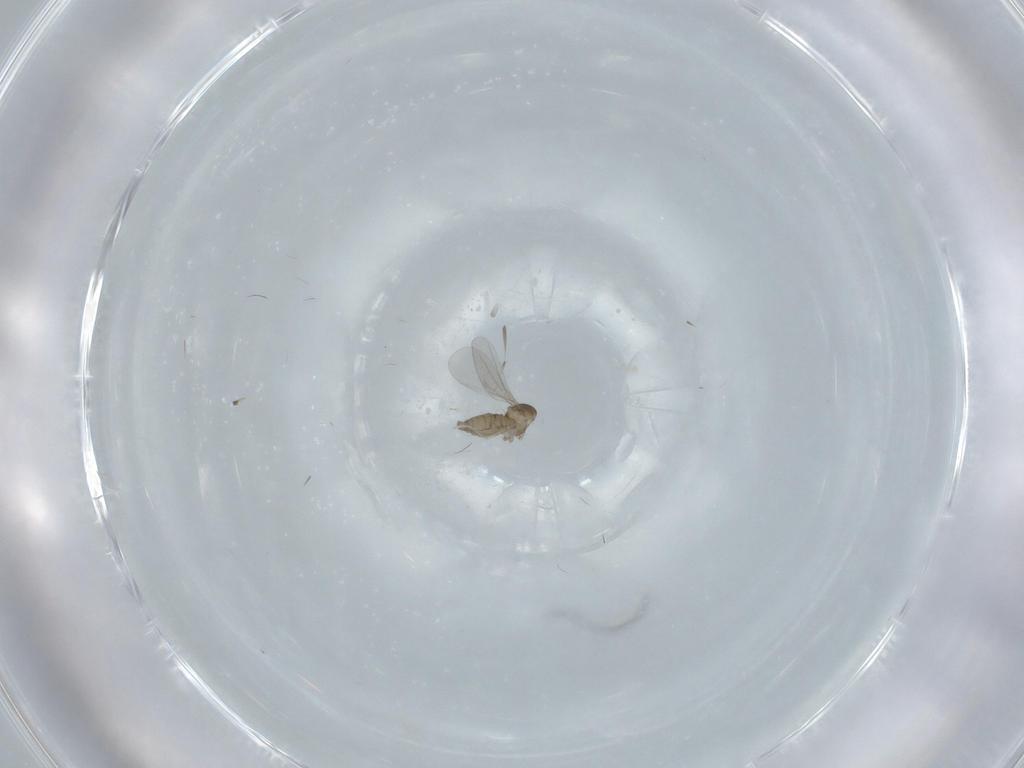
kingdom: Animalia
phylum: Arthropoda
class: Insecta
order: Diptera
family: Cecidomyiidae
